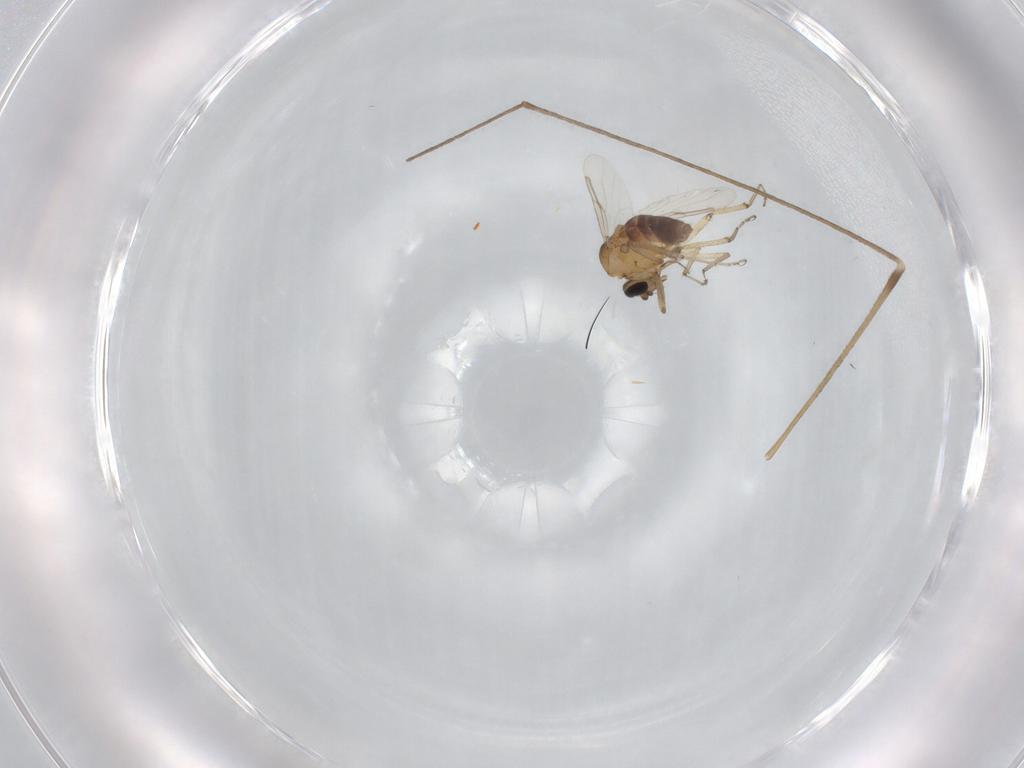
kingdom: Animalia
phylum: Arthropoda
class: Insecta
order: Diptera
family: Ceratopogonidae
